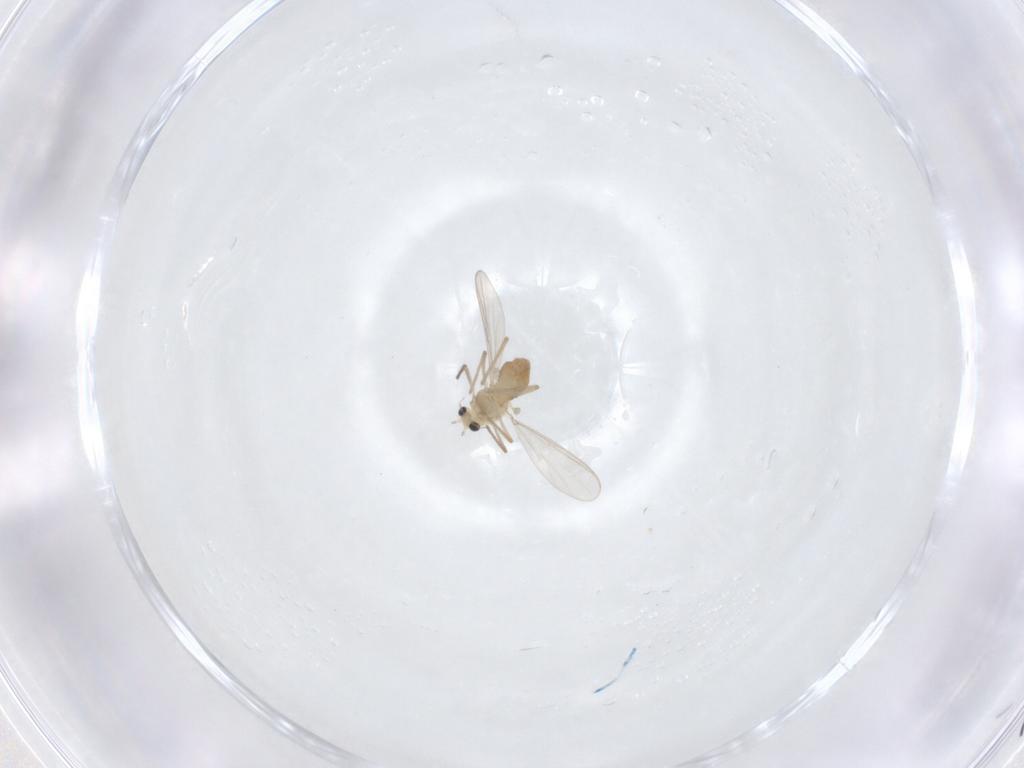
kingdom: Animalia
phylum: Arthropoda
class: Insecta
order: Diptera
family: Chironomidae
